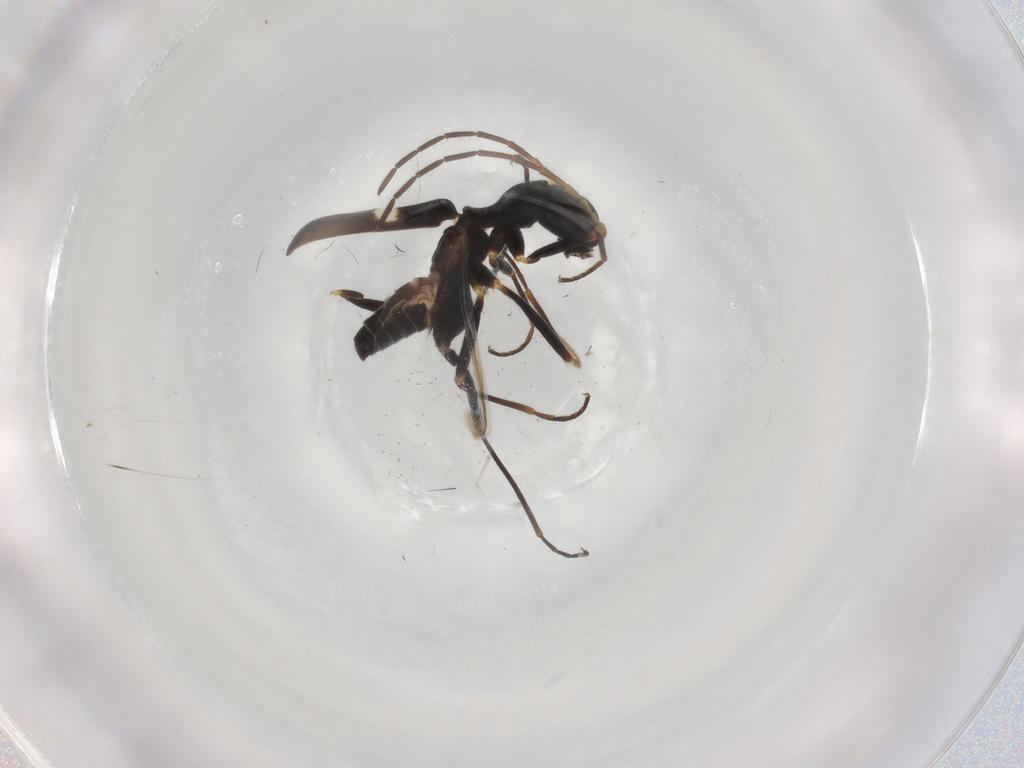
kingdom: Animalia
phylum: Arthropoda
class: Insecta
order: Coleoptera
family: Melyridae
